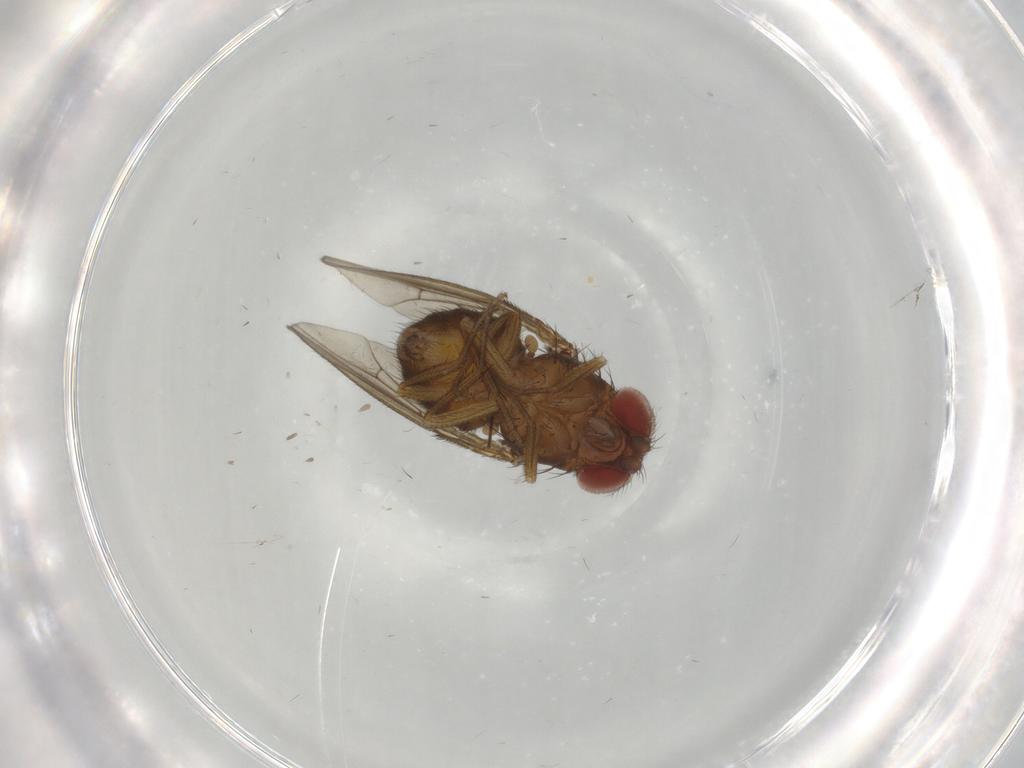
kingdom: Animalia
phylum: Arthropoda
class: Insecta
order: Diptera
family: Drosophilidae
